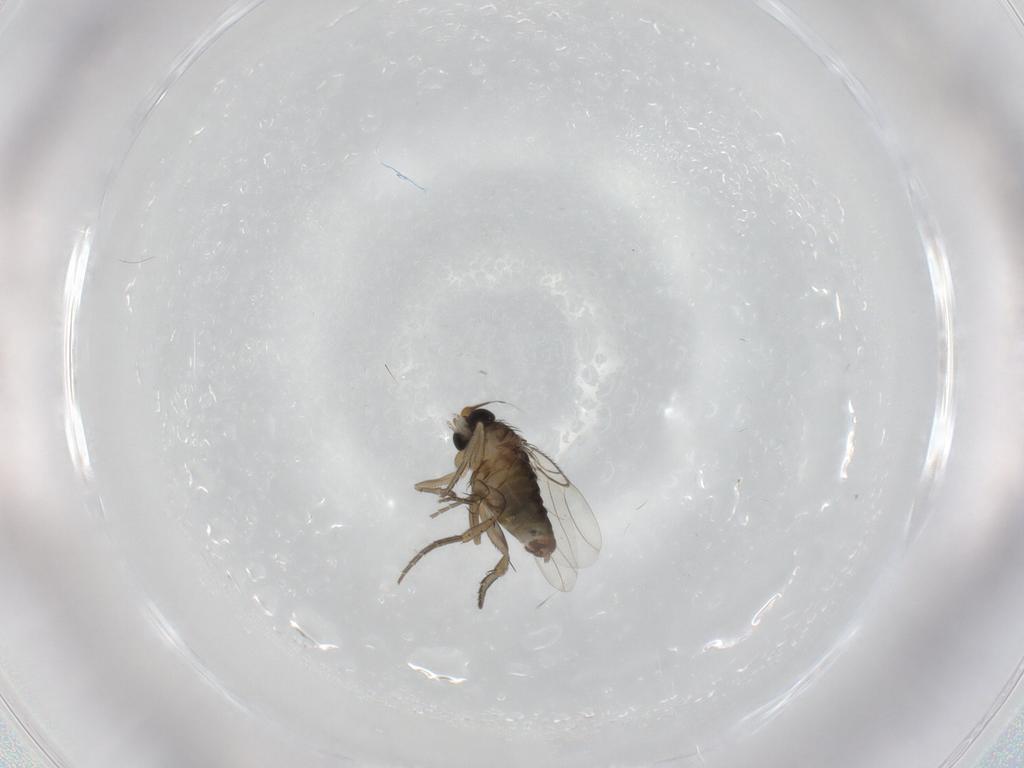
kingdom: Animalia
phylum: Arthropoda
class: Insecta
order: Diptera
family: Phoridae
